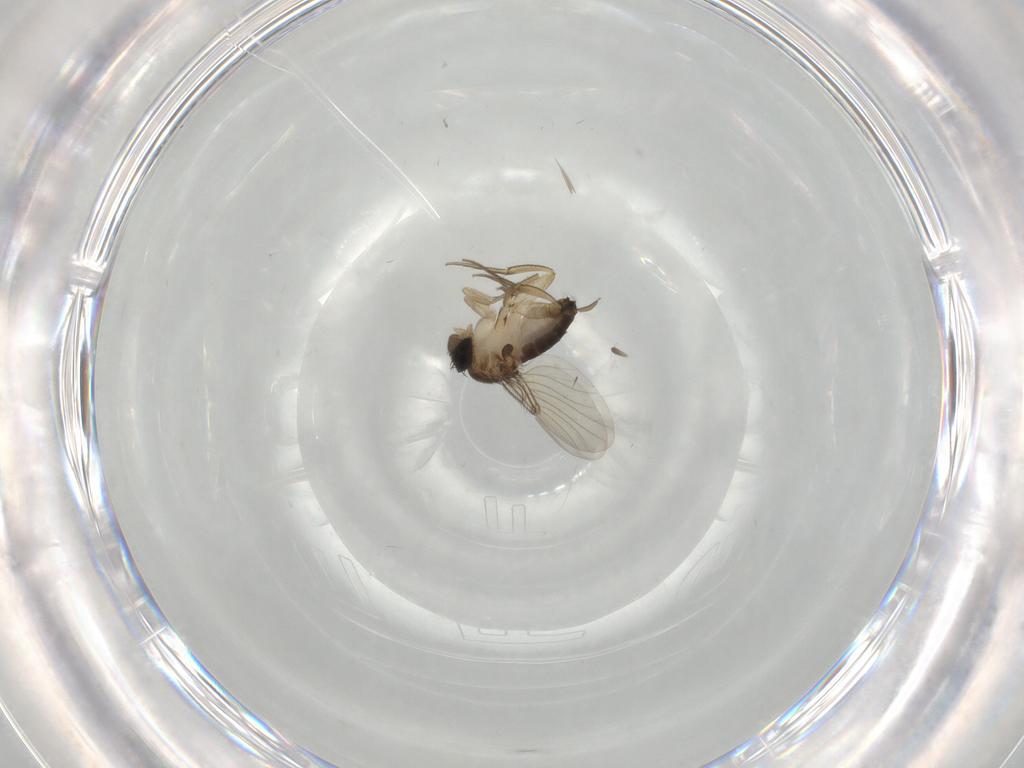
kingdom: Animalia
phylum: Arthropoda
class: Insecta
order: Diptera
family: Phoridae
